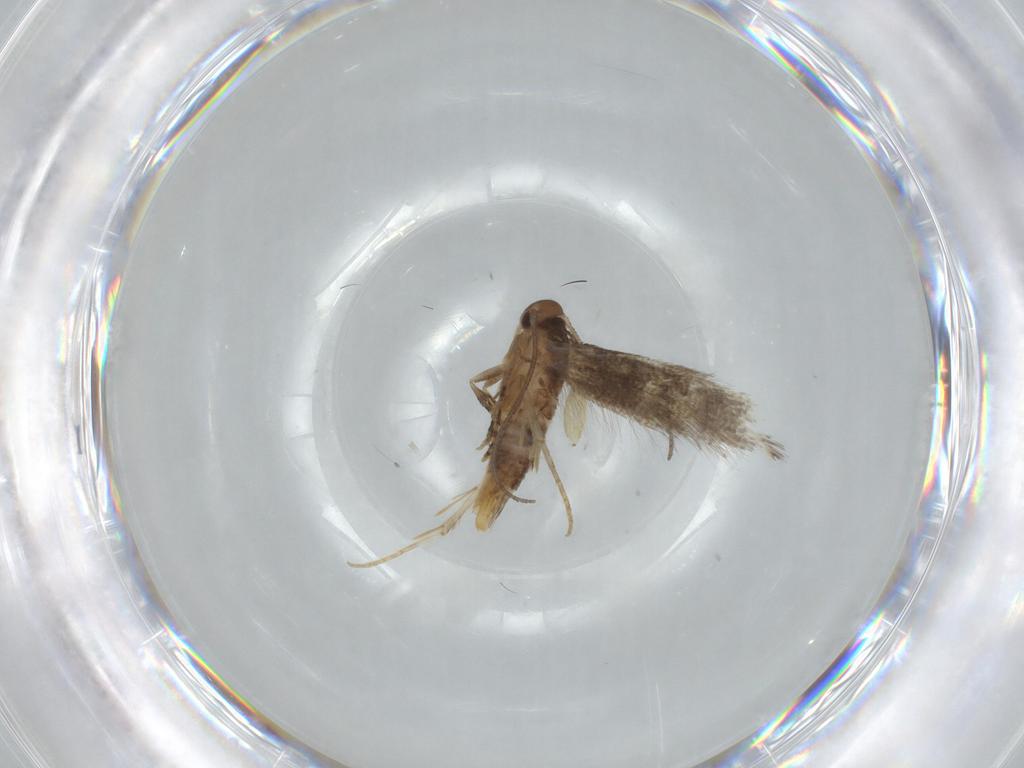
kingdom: Animalia
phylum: Arthropoda
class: Insecta
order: Lepidoptera
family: Elachistidae
